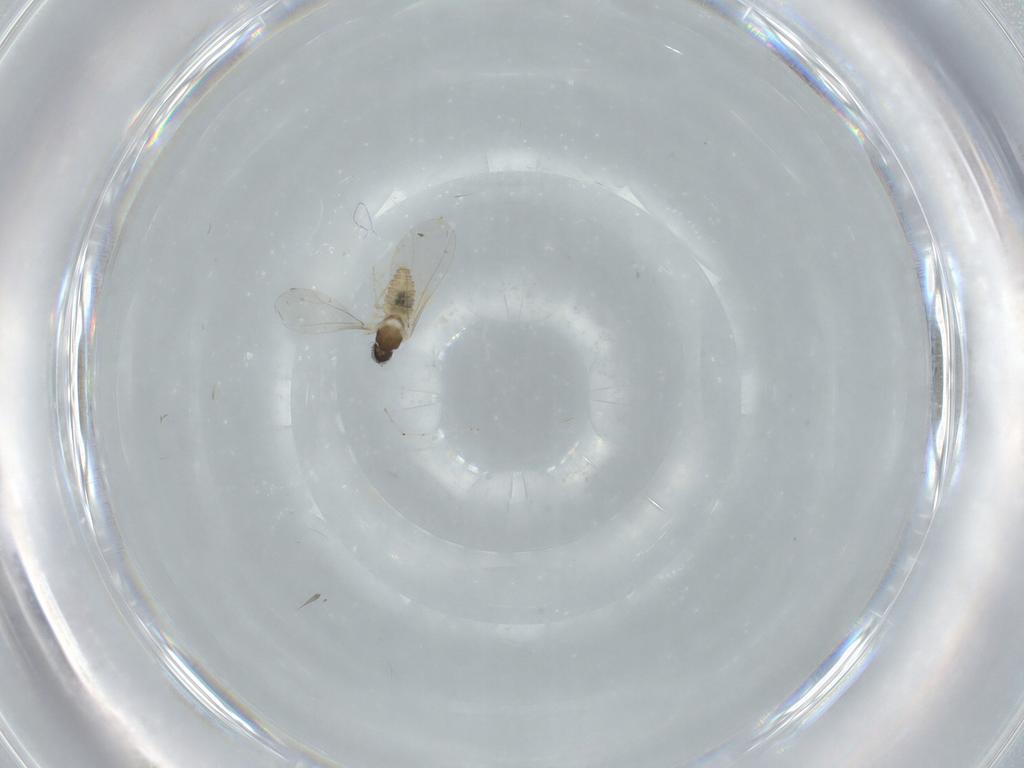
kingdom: Animalia
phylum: Arthropoda
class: Insecta
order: Diptera
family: Cecidomyiidae
